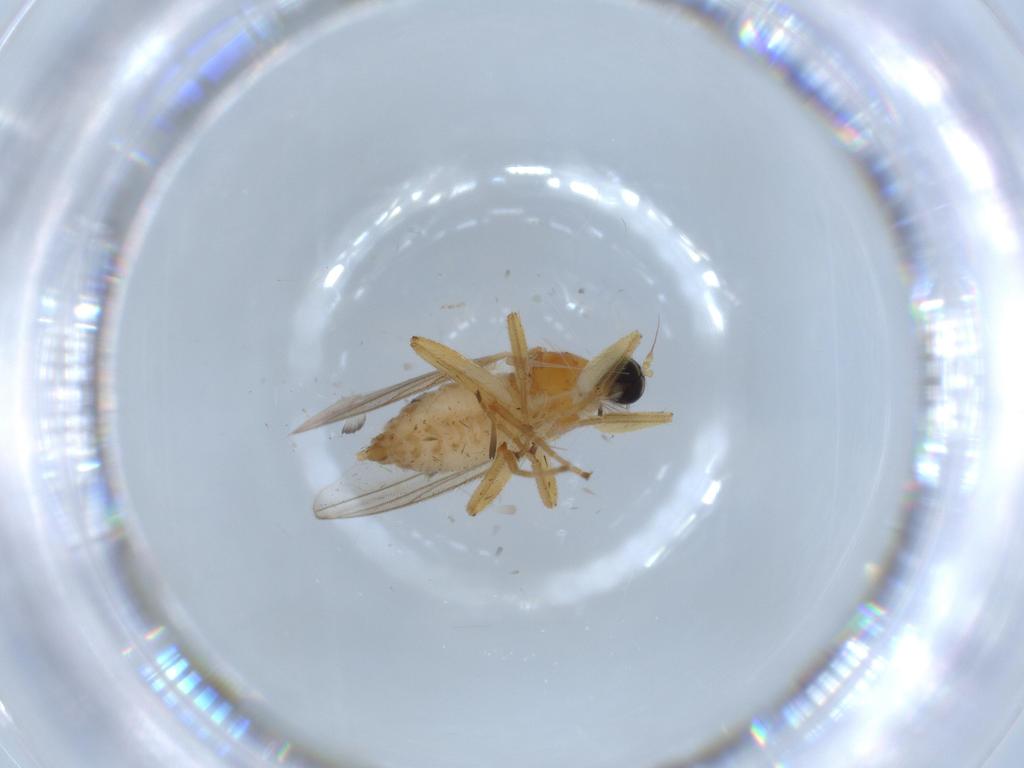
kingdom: Animalia
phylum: Arthropoda
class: Insecta
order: Diptera
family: Hybotidae
